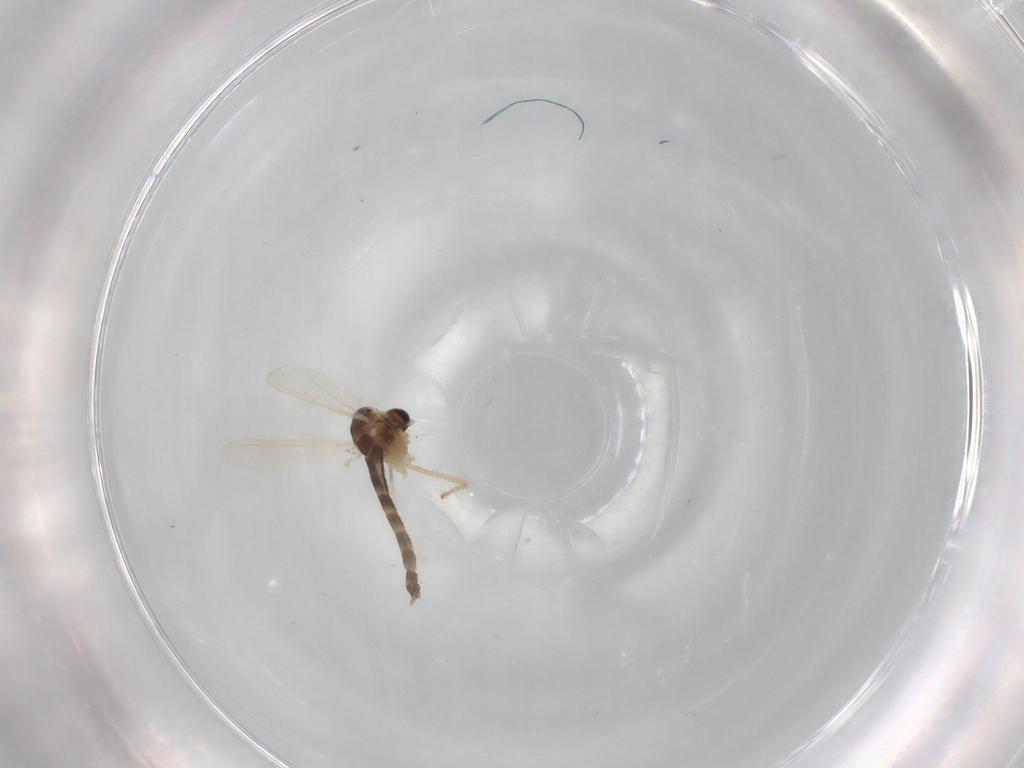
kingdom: Animalia
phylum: Arthropoda
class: Insecta
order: Diptera
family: Chironomidae
